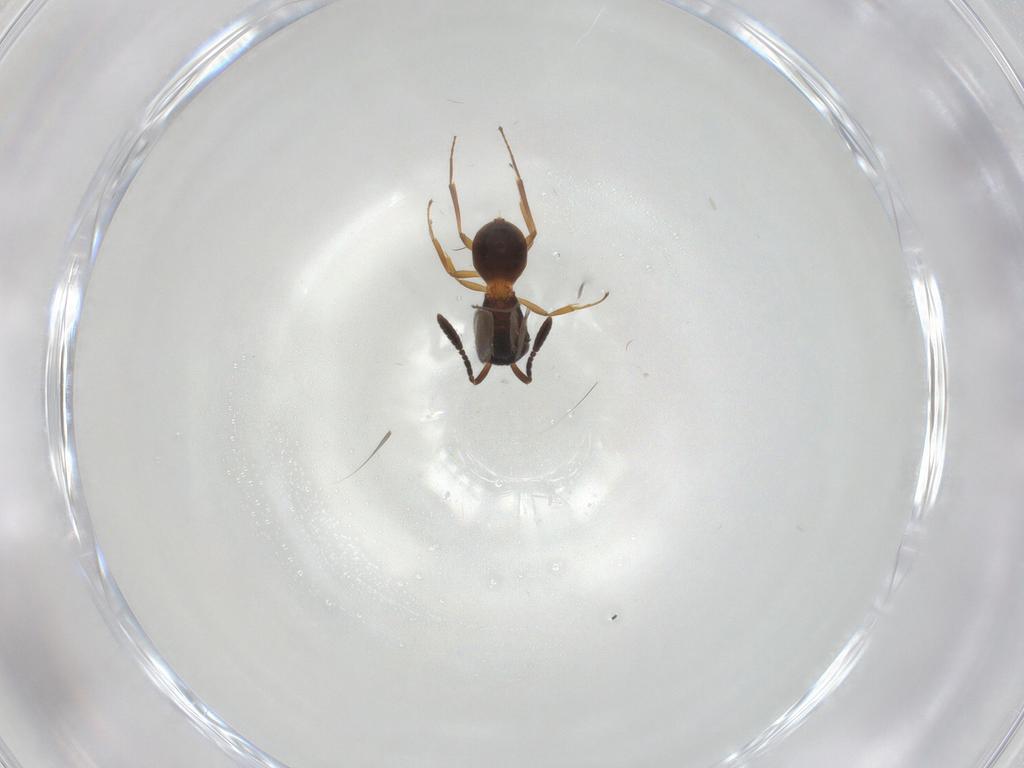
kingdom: Animalia
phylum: Arthropoda
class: Insecta
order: Hymenoptera
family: Scelionidae
